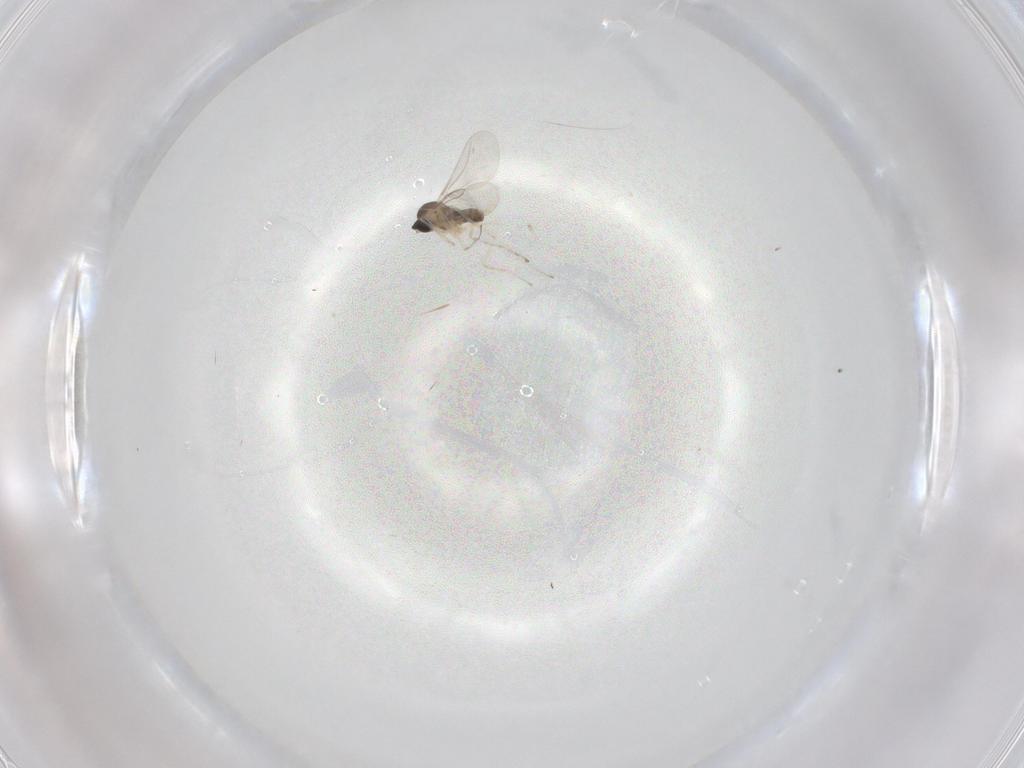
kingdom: Animalia
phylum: Arthropoda
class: Insecta
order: Diptera
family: Cecidomyiidae
